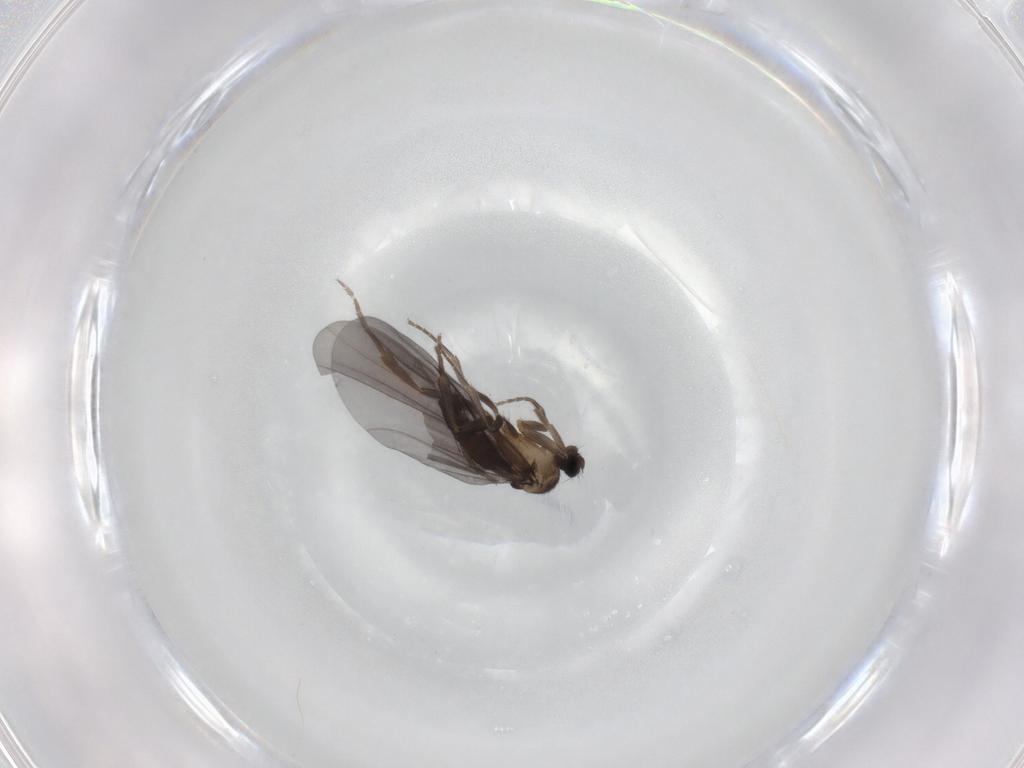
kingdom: Animalia
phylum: Arthropoda
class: Insecta
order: Diptera
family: Phoridae
